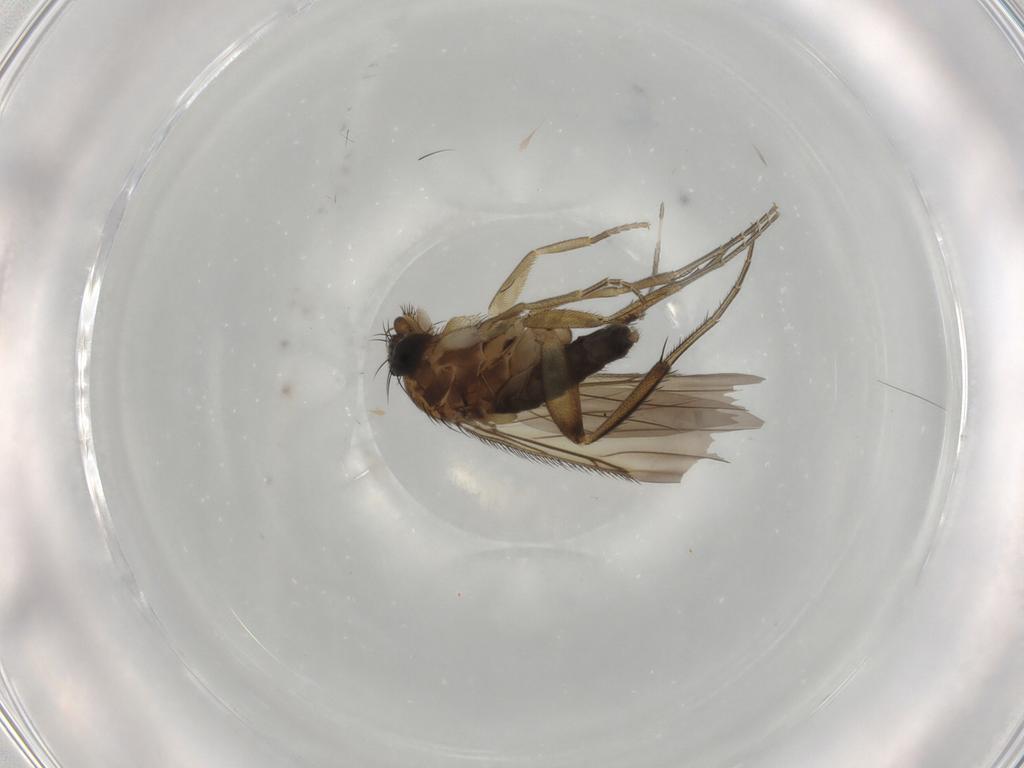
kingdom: Animalia
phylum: Arthropoda
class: Insecta
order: Diptera
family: Phoridae
